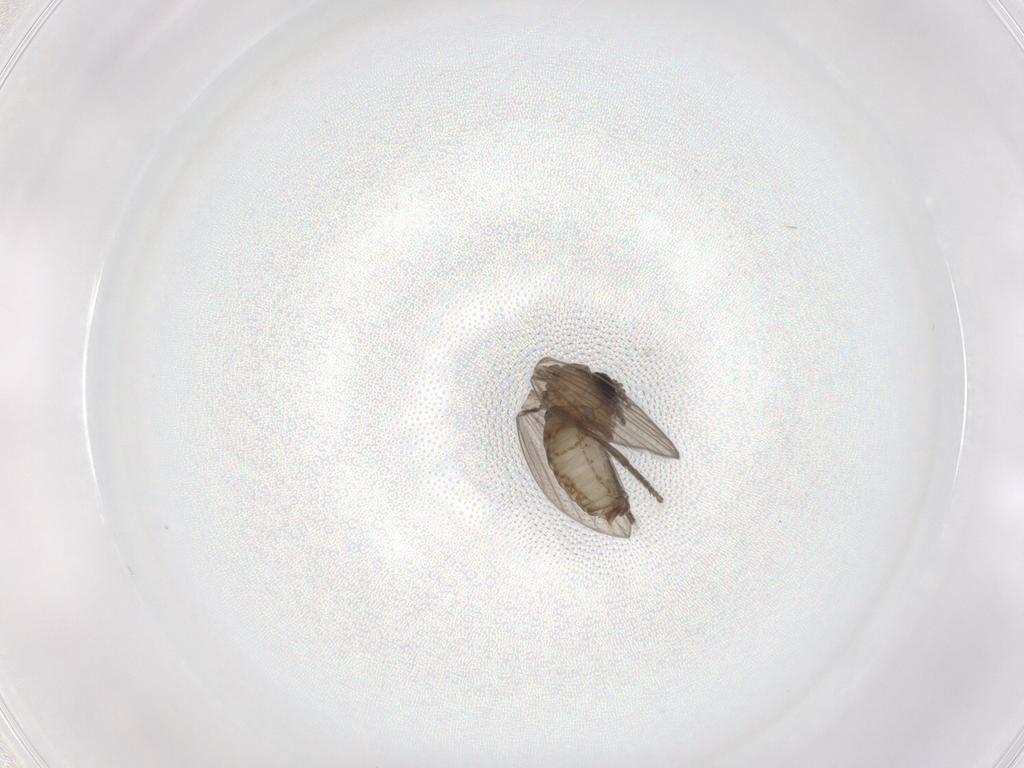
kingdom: Animalia
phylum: Arthropoda
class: Insecta
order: Diptera
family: Psychodidae
